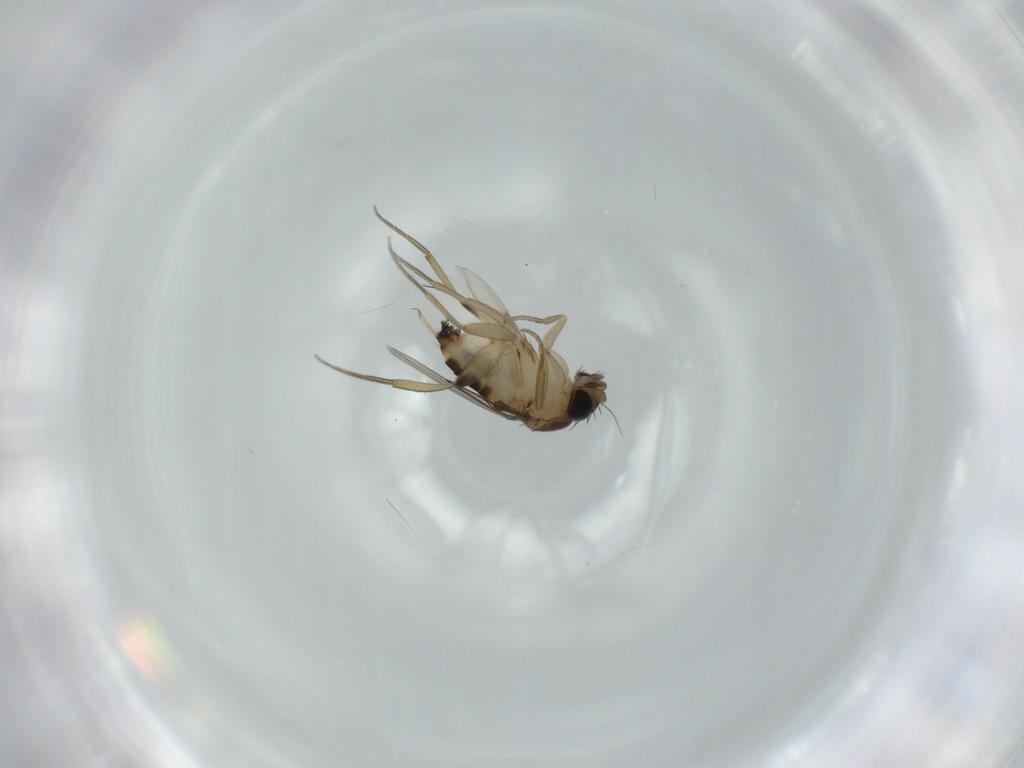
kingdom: Animalia
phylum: Arthropoda
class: Insecta
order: Diptera
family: Phoridae
